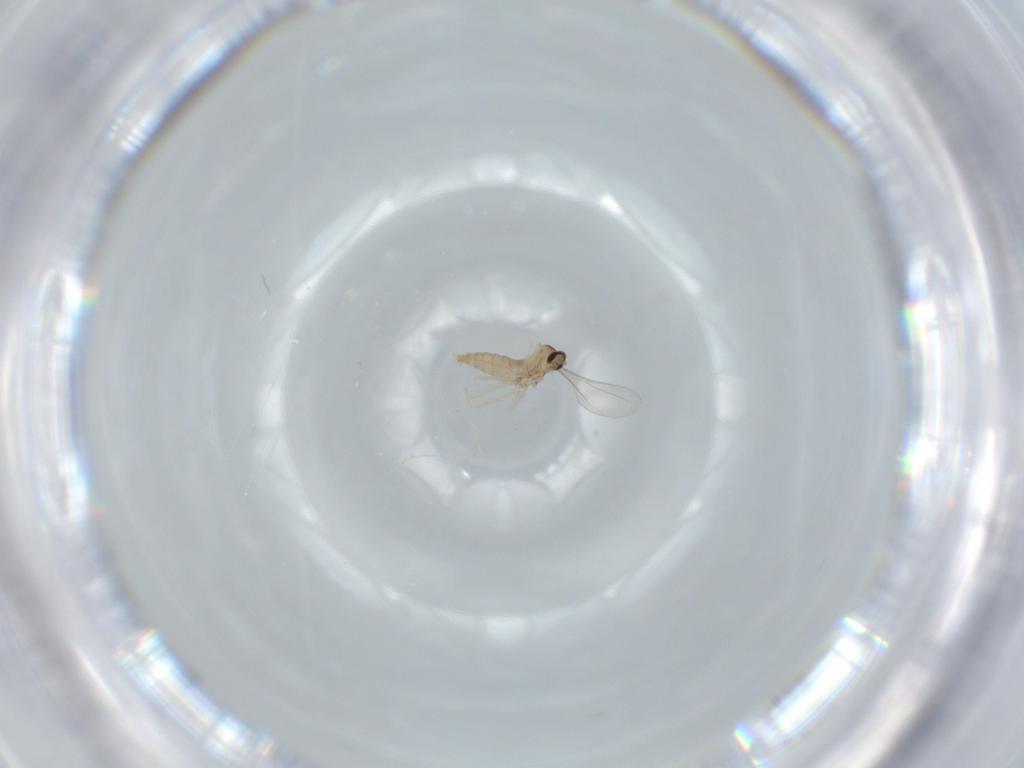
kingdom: Animalia
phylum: Arthropoda
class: Insecta
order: Diptera
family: Cecidomyiidae
